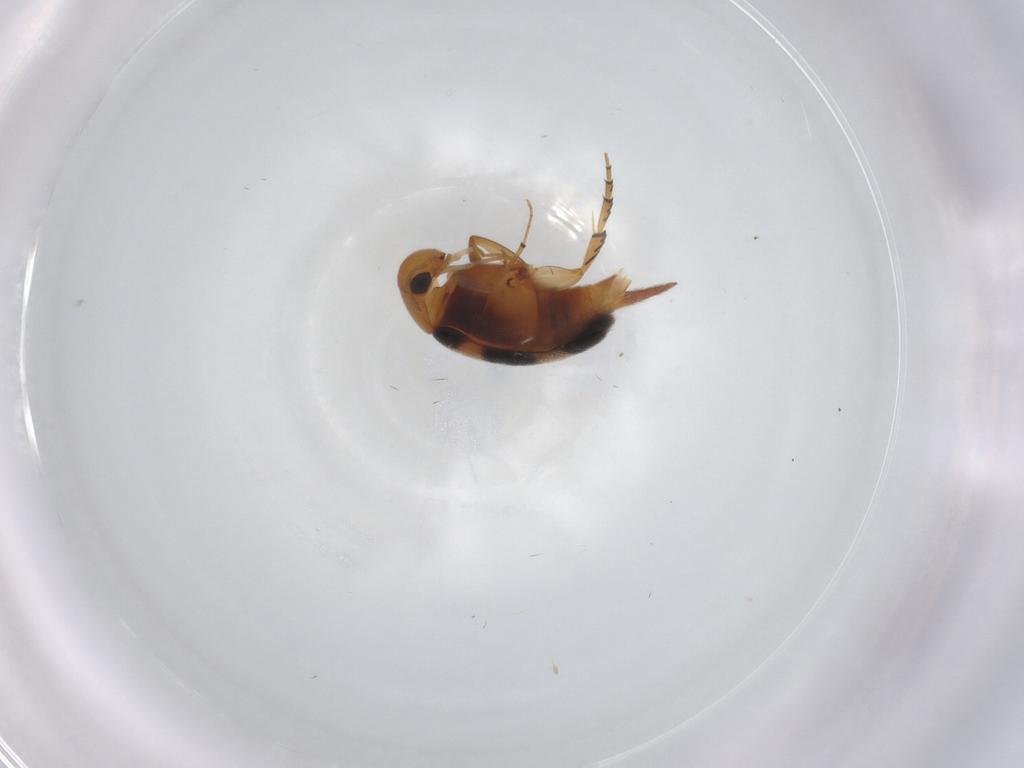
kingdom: Animalia
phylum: Arthropoda
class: Insecta
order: Coleoptera
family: Mordellidae
